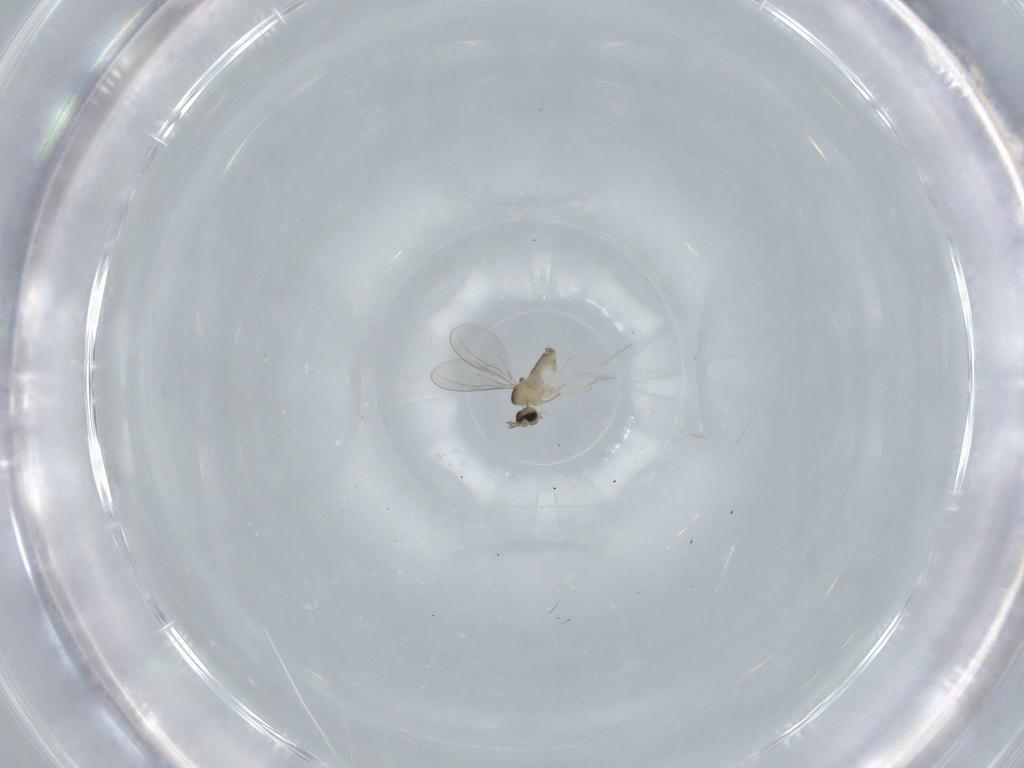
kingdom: Animalia
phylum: Arthropoda
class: Insecta
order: Diptera
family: Cecidomyiidae
